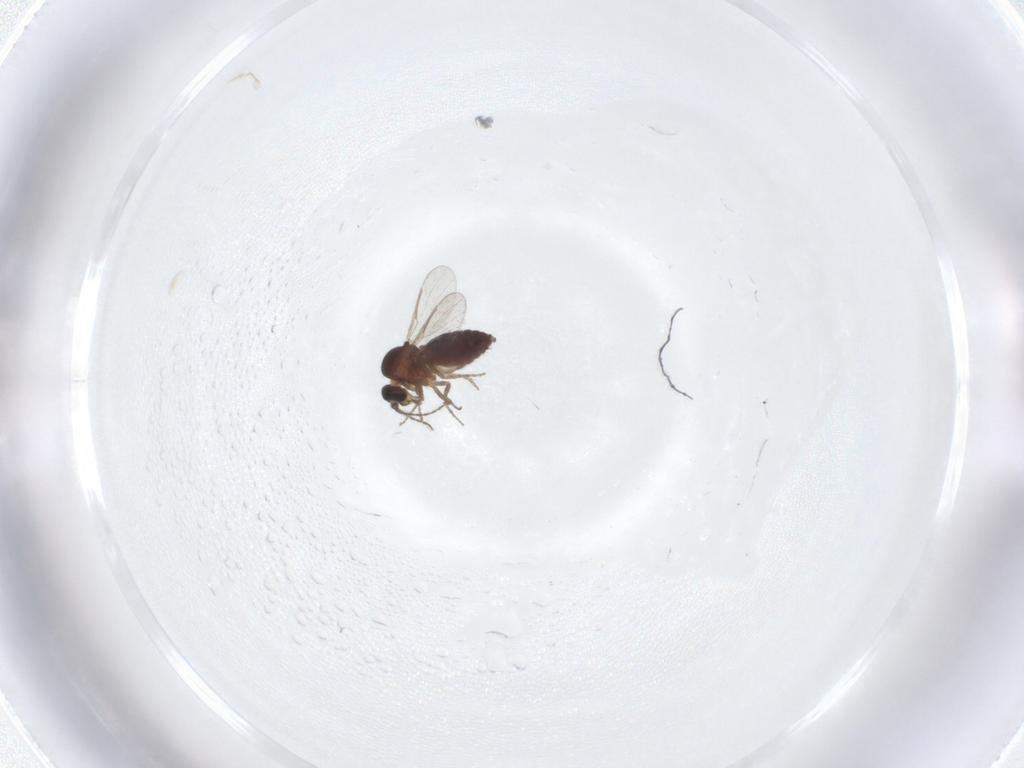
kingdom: Animalia
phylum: Arthropoda
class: Insecta
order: Diptera
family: Ceratopogonidae
